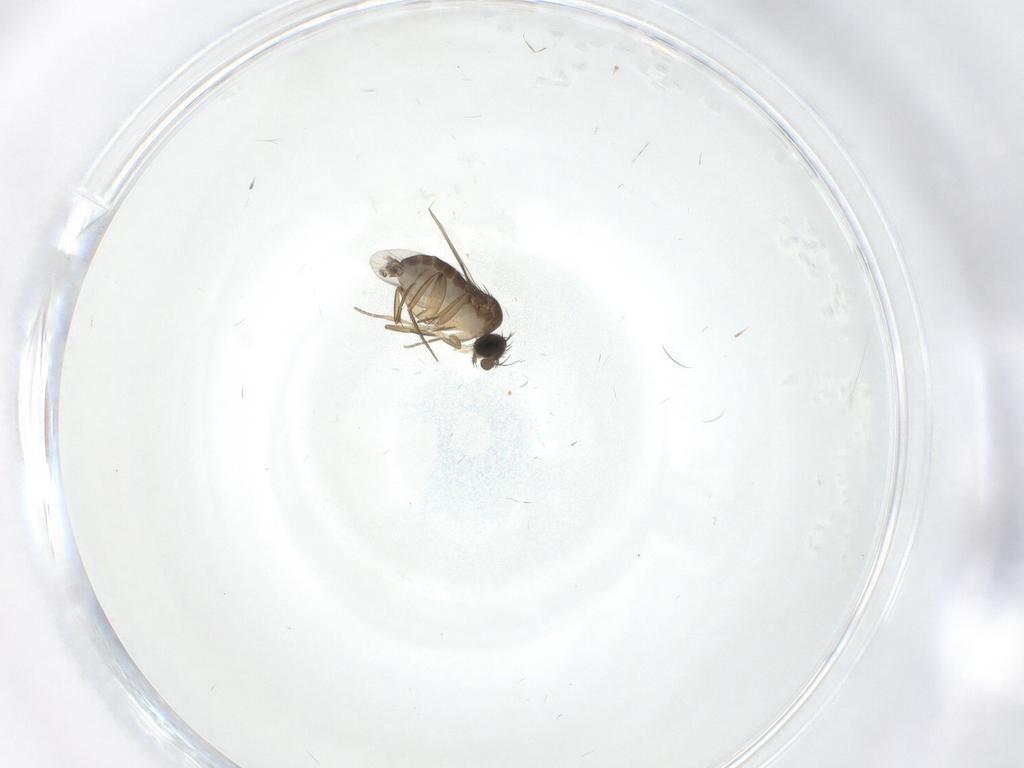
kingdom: Animalia
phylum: Arthropoda
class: Insecta
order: Diptera
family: Phoridae
